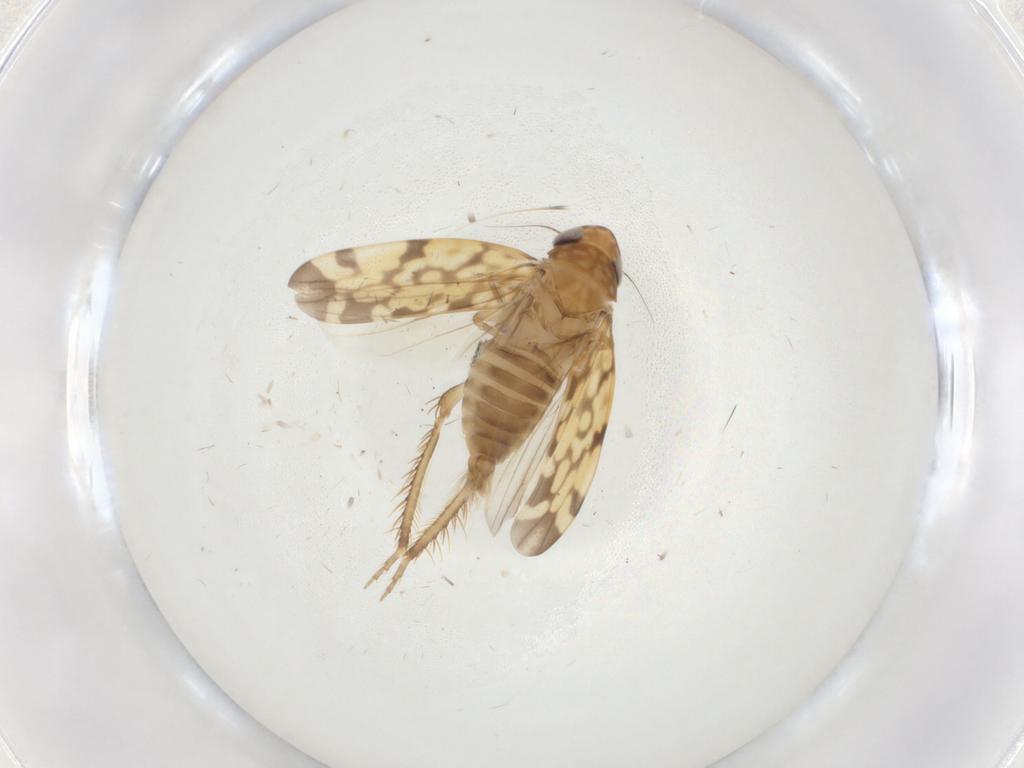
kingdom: Animalia
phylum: Arthropoda
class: Insecta
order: Hemiptera
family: Cicadellidae
